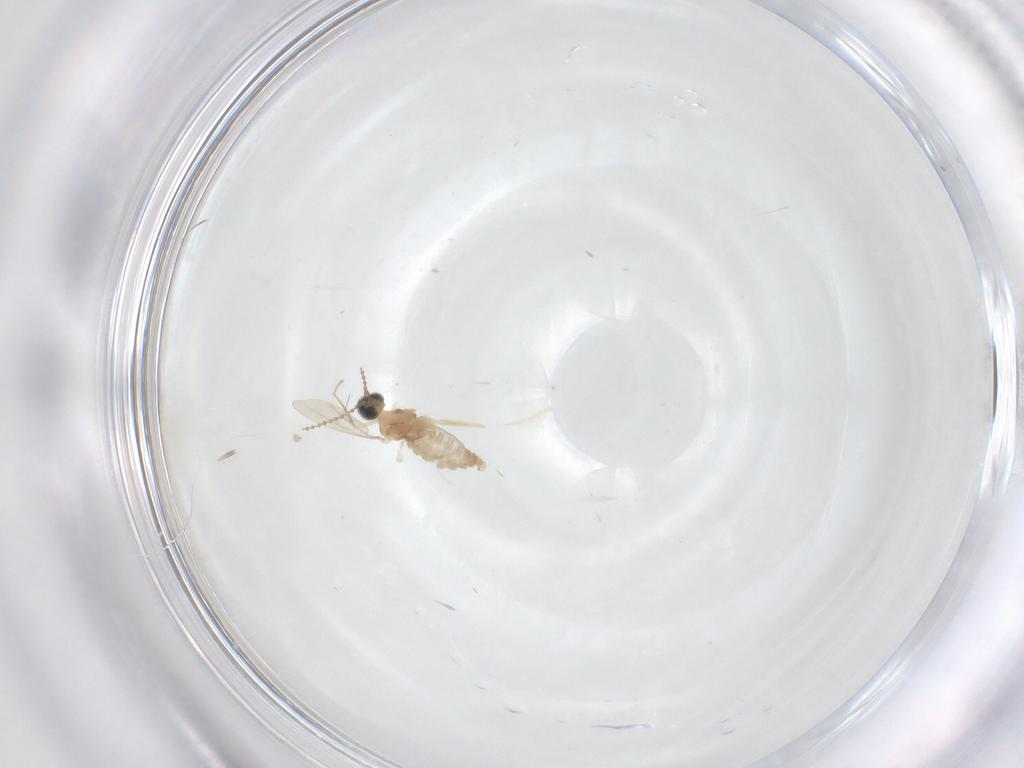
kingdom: Animalia
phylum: Arthropoda
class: Insecta
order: Diptera
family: Cecidomyiidae
